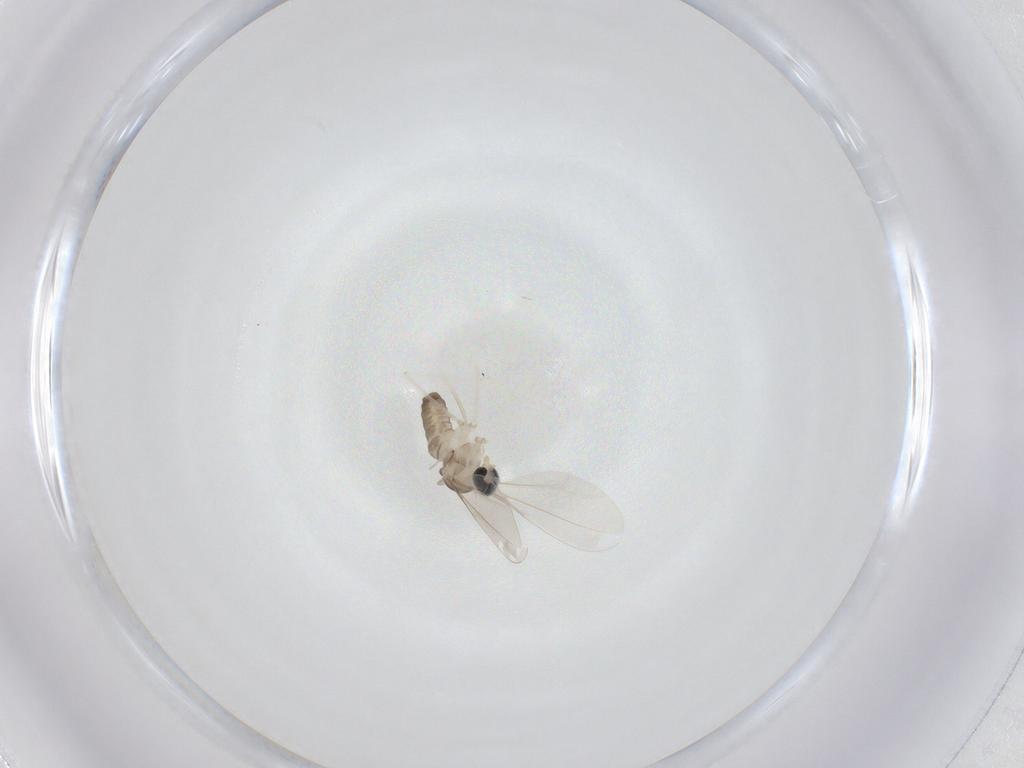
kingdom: Animalia
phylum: Arthropoda
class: Insecta
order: Diptera
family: Cecidomyiidae
